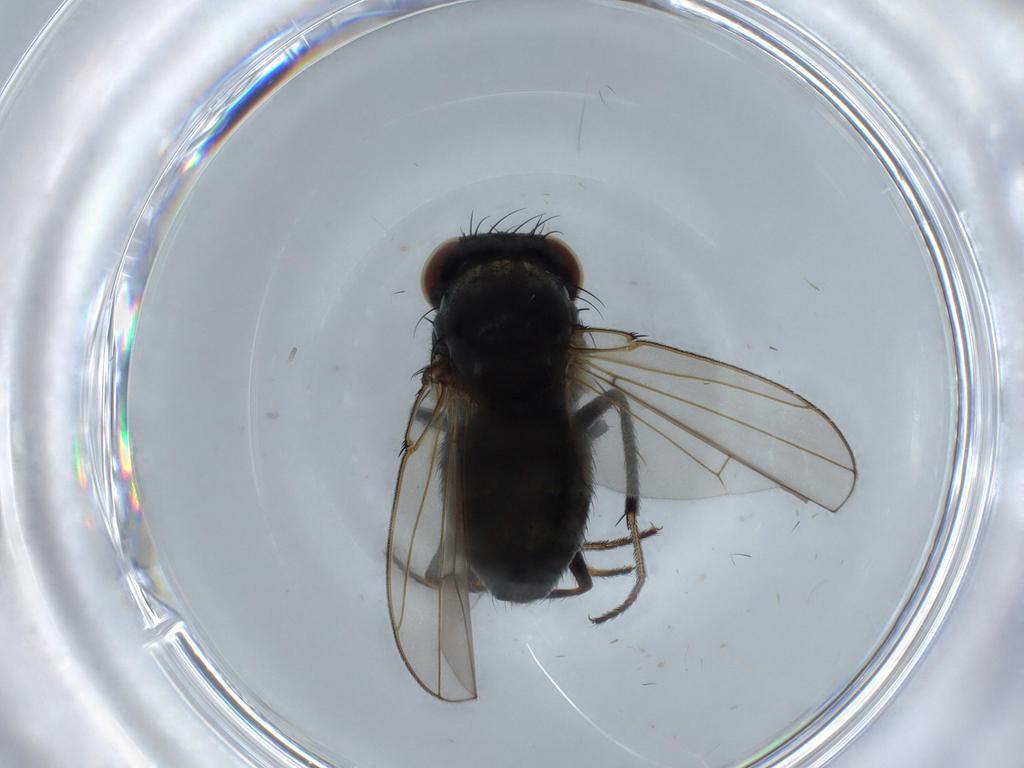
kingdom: Animalia
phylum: Arthropoda
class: Insecta
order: Diptera
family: Ephydridae
